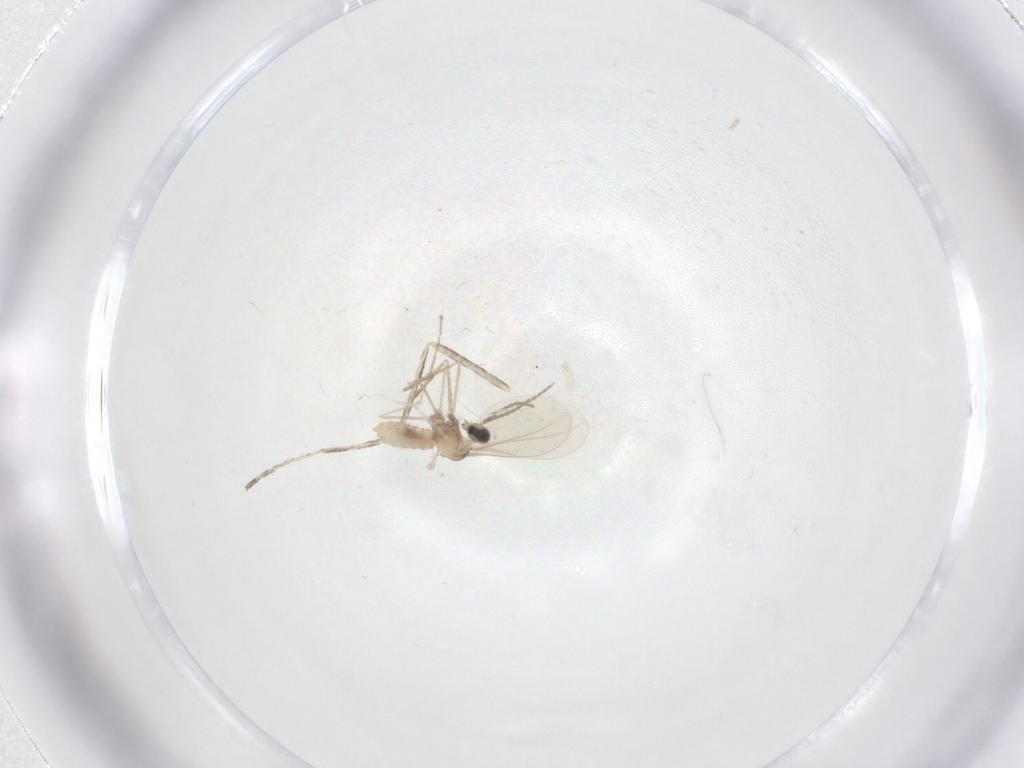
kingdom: Animalia
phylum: Arthropoda
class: Insecta
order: Diptera
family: Cecidomyiidae
